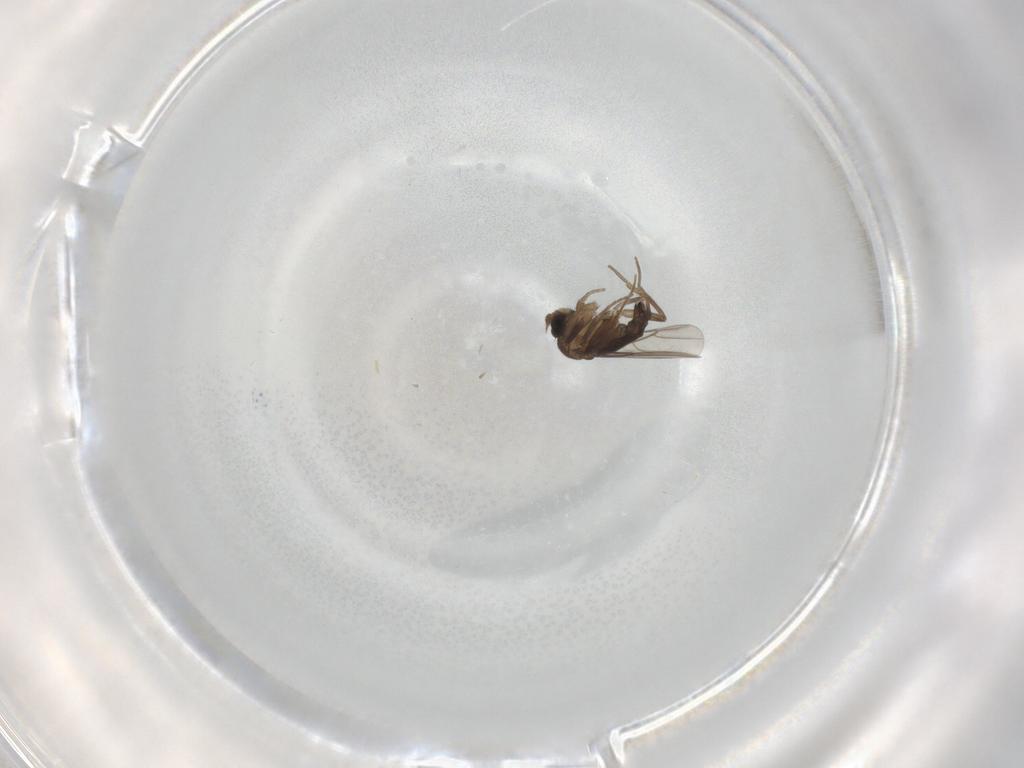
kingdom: Animalia
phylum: Arthropoda
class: Insecta
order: Diptera
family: Phoridae
